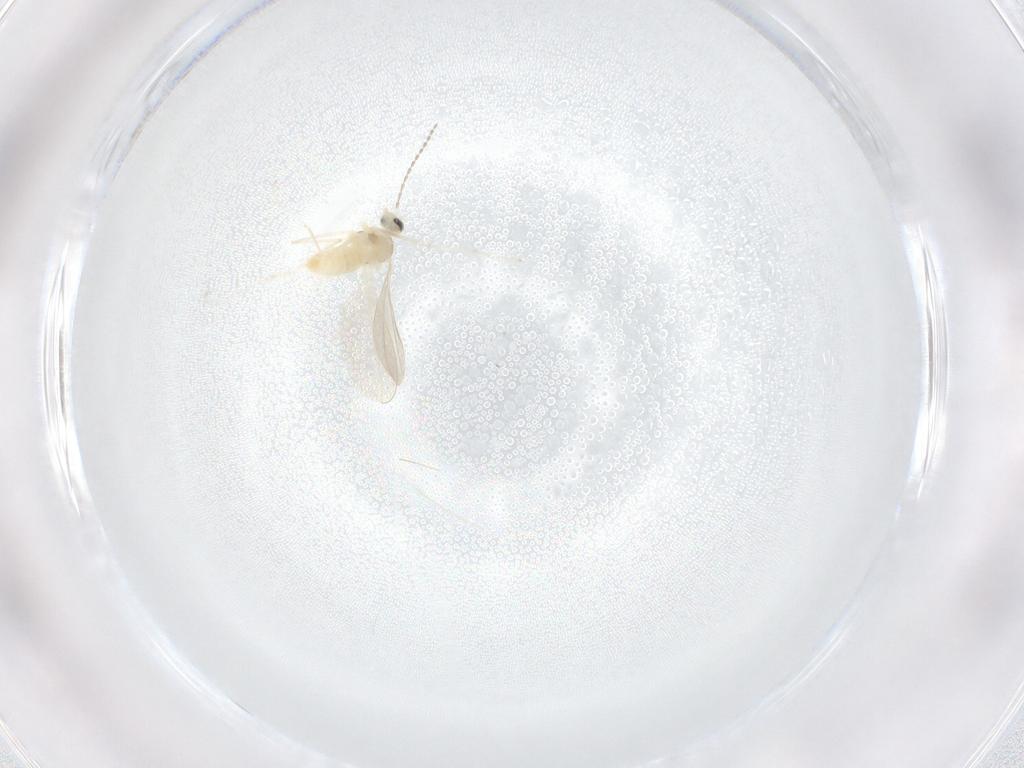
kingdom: Animalia
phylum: Arthropoda
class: Insecta
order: Diptera
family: Cecidomyiidae
